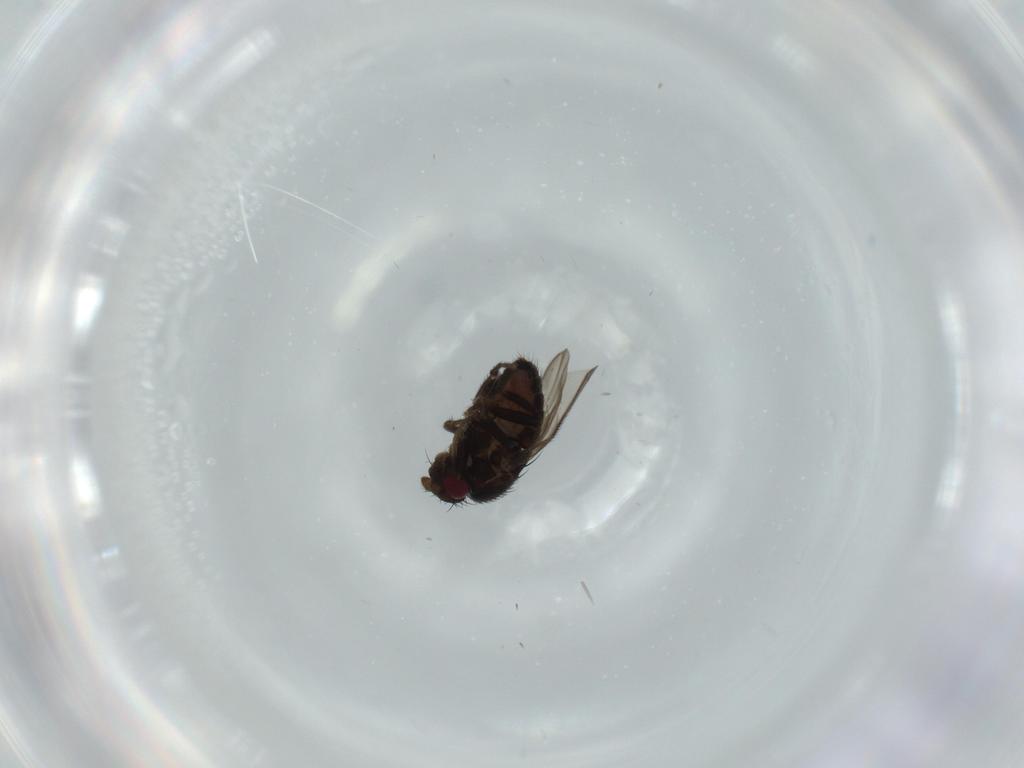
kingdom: Animalia
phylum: Arthropoda
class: Insecta
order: Diptera
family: Sphaeroceridae
